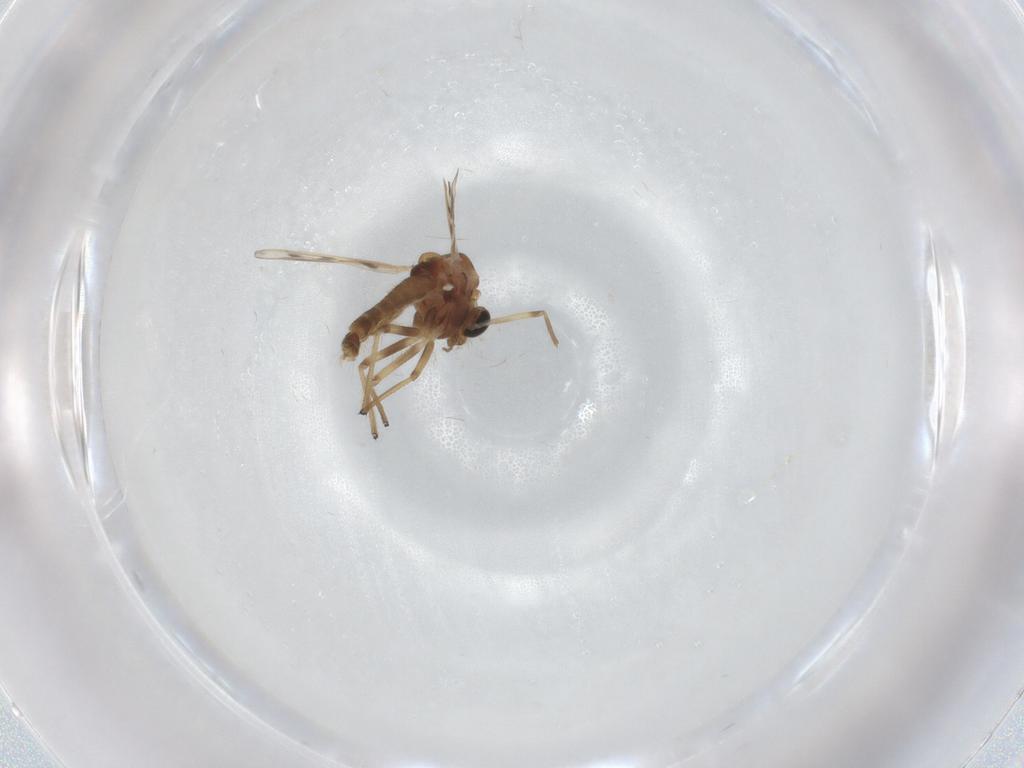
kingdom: Animalia
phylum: Arthropoda
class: Insecta
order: Diptera
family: Chironomidae
